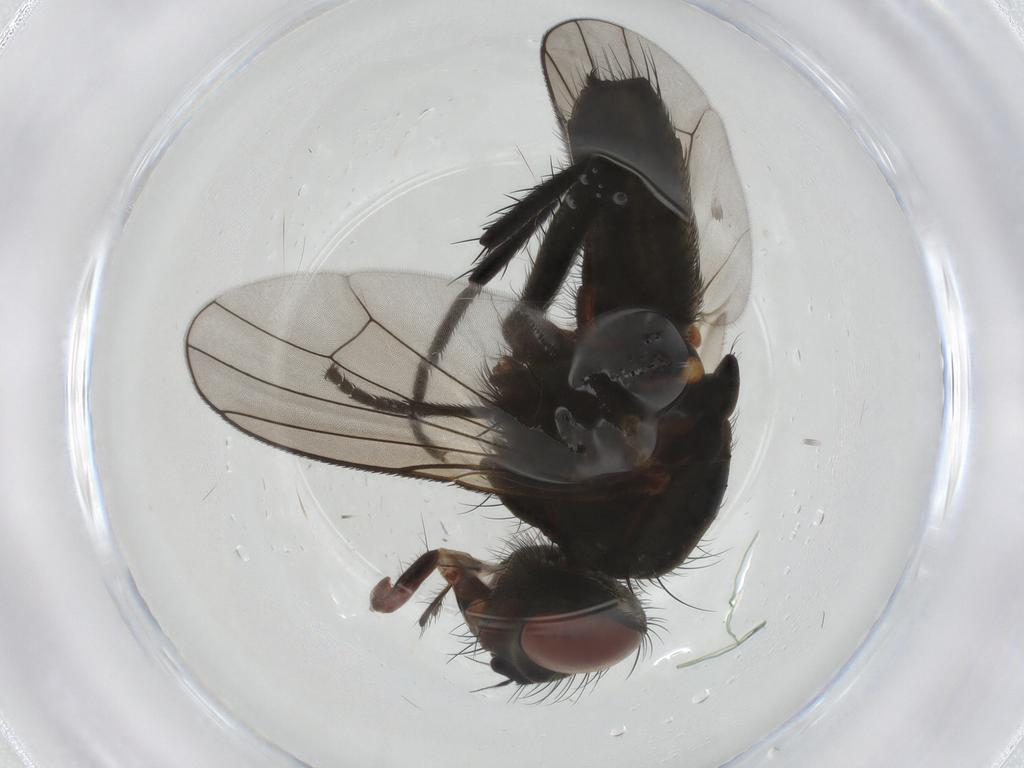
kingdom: Animalia
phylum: Arthropoda
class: Insecta
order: Diptera
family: Anthomyiidae
